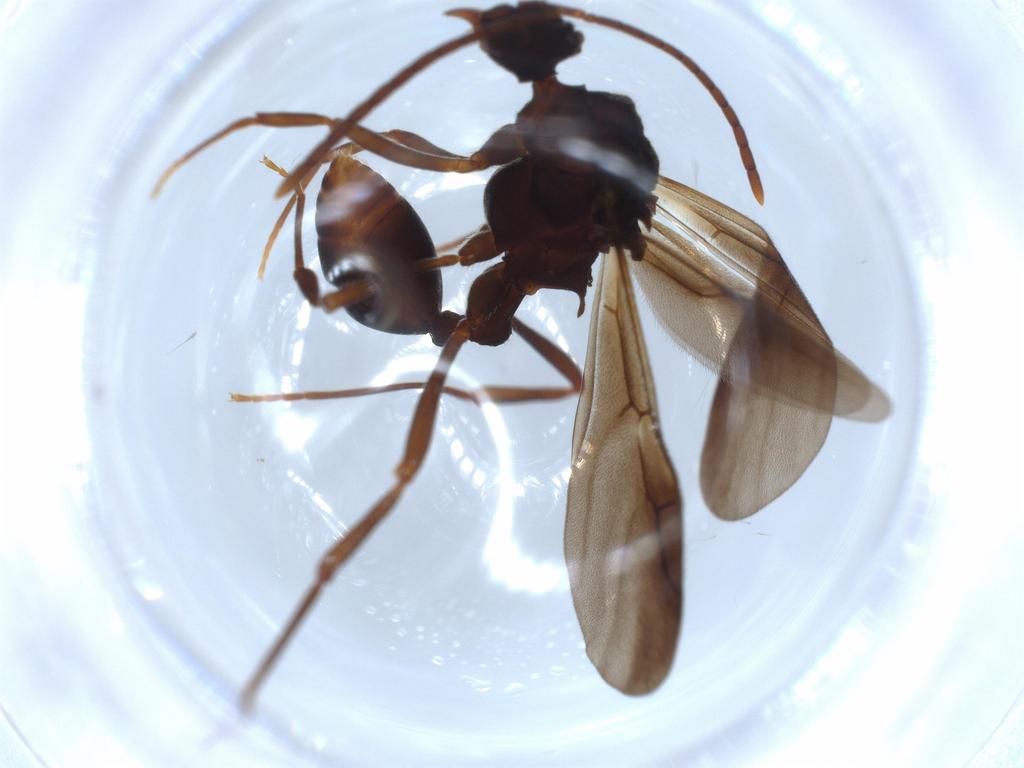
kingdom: Animalia
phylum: Arthropoda
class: Insecta
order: Hymenoptera
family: Formicidae
